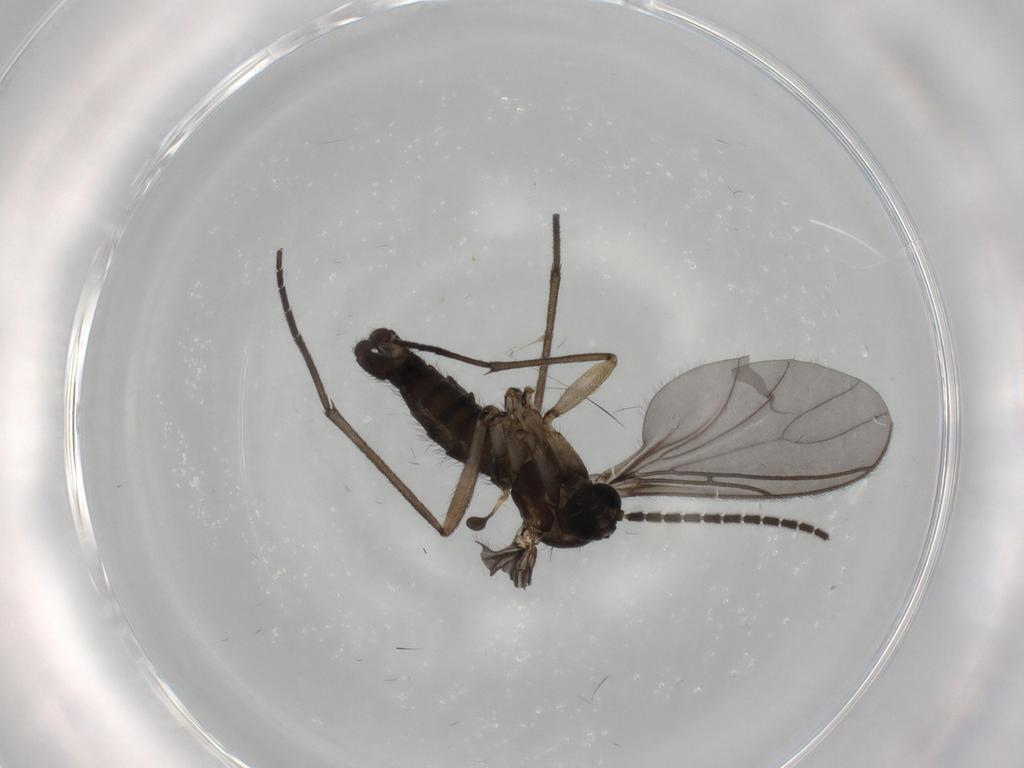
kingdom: Animalia
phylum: Arthropoda
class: Insecta
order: Diptera
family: Sciaridae
